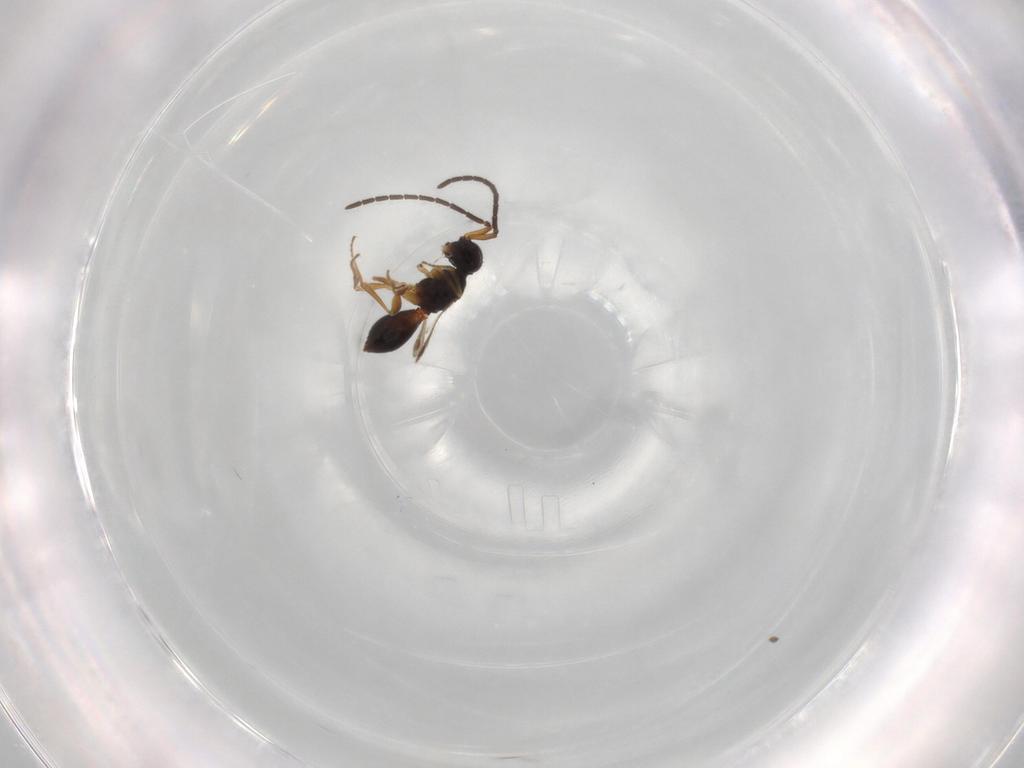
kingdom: Animalia
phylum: Arthropoda
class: Insecta
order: Hymenoptera
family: Megaspilidae
